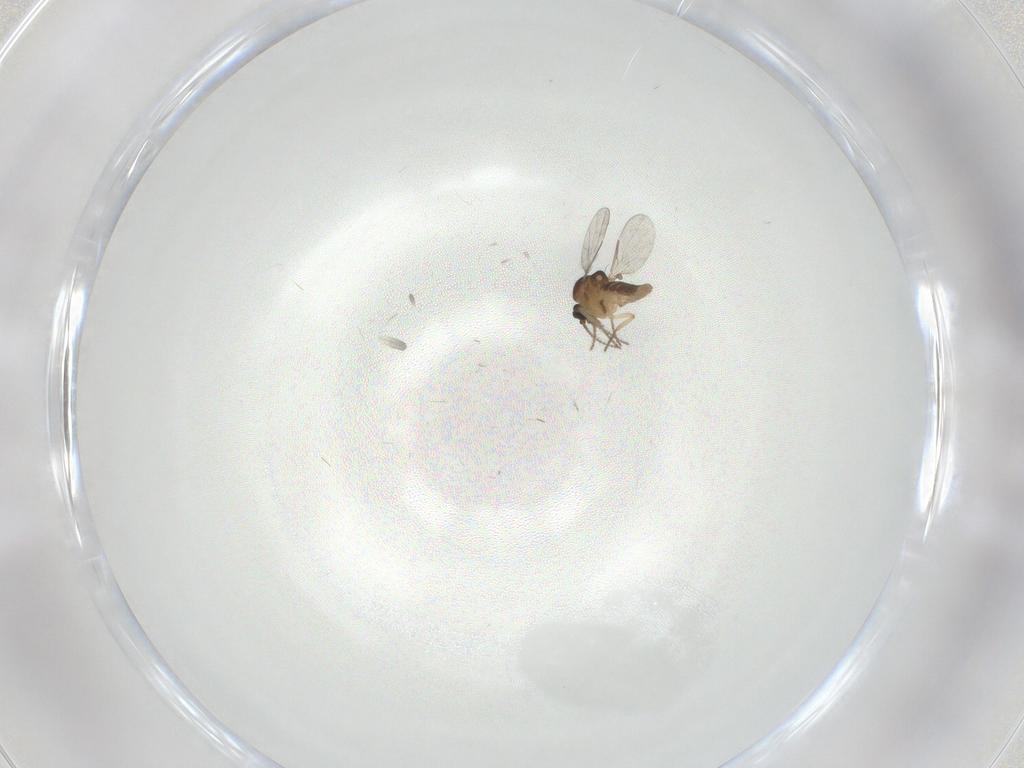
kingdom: Animalia
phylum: Arthropoda
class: Insecta
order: Diptera
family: Ceratopogonidae
